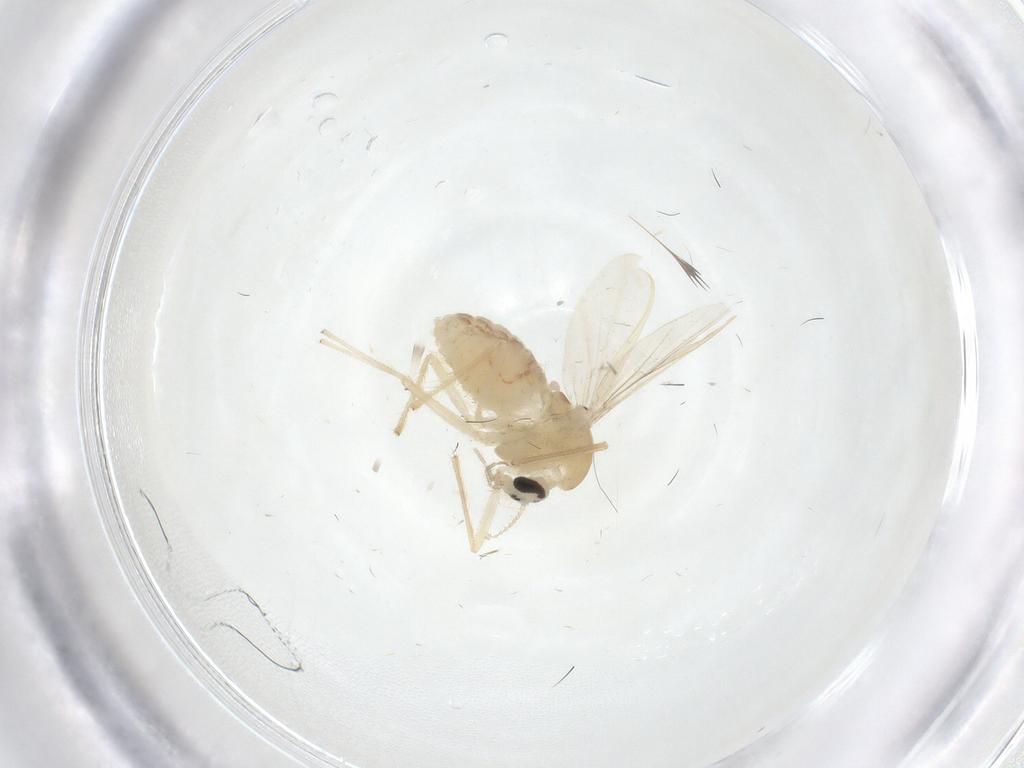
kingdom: Animalia
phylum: Arthropoda
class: Insecta
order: Diptera
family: Chironomidae
